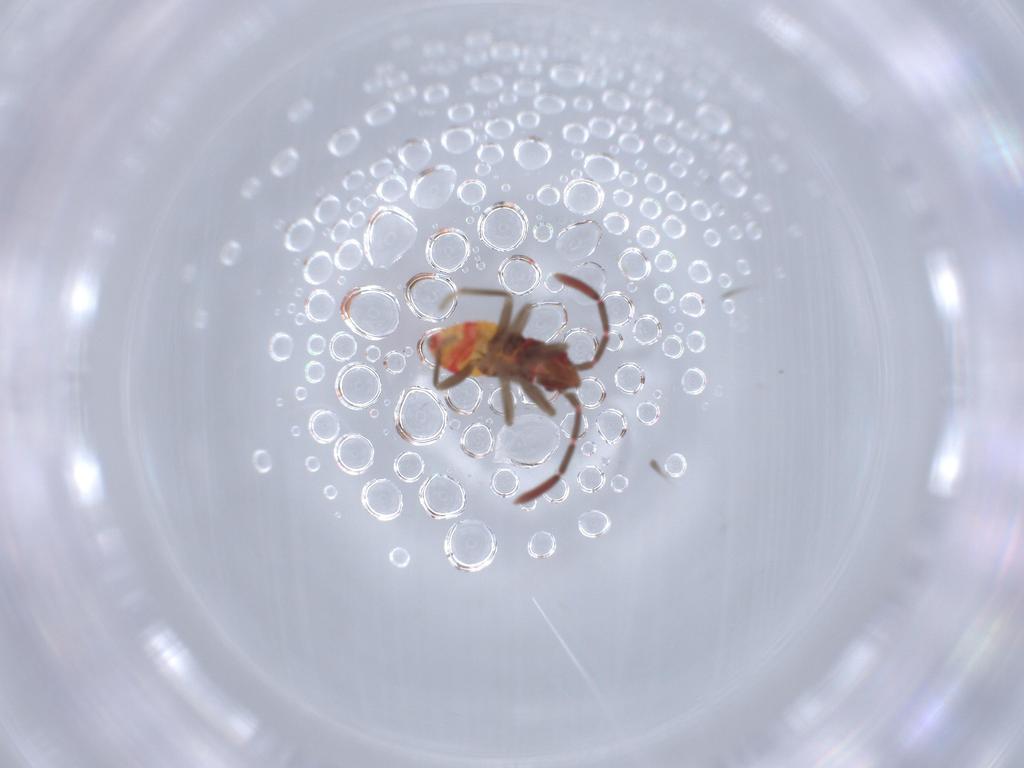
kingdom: Animalia
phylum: Arthropoda
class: Insecta
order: Hemiptera
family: Rhyparochromidae
